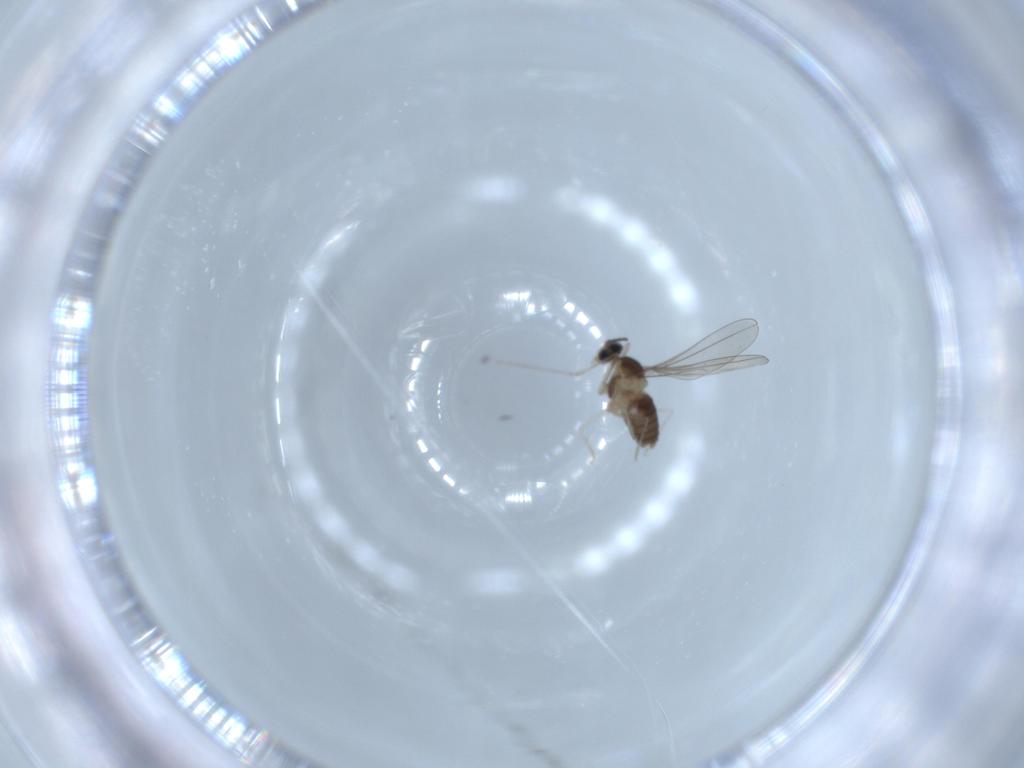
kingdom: Animalia
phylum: Arthropoda
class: Insecta
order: Diptera
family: Cecidomyiidae
